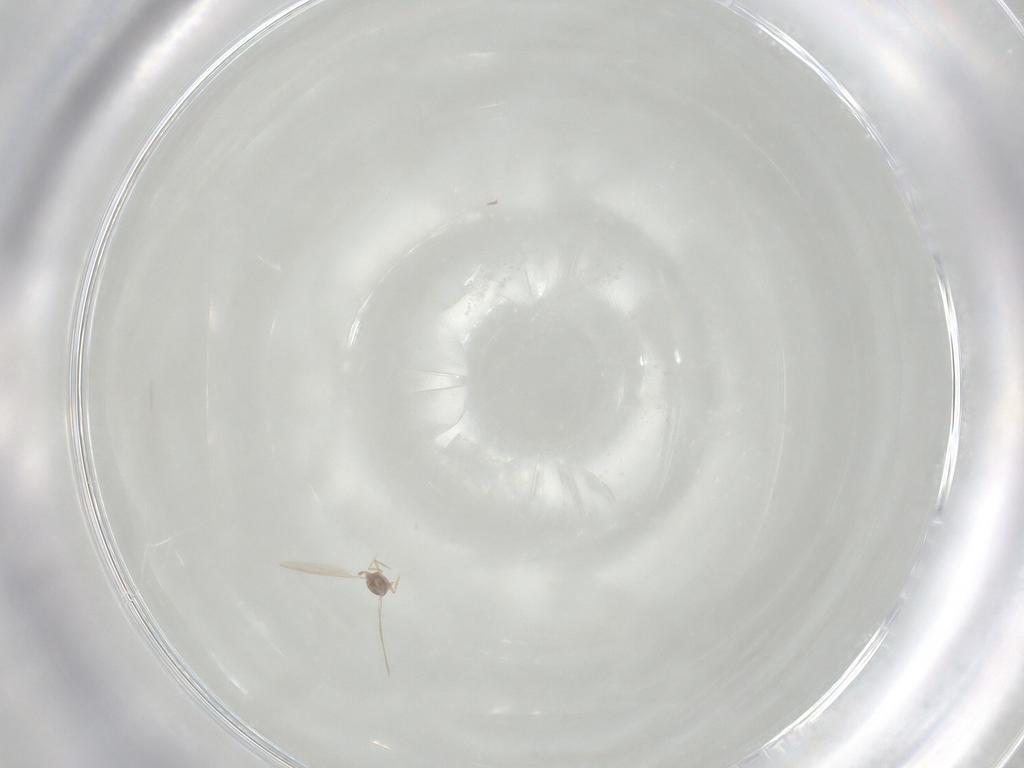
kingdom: Animalia
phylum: Arthropoda
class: Insecta
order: Hemiptera
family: Diaspididae
